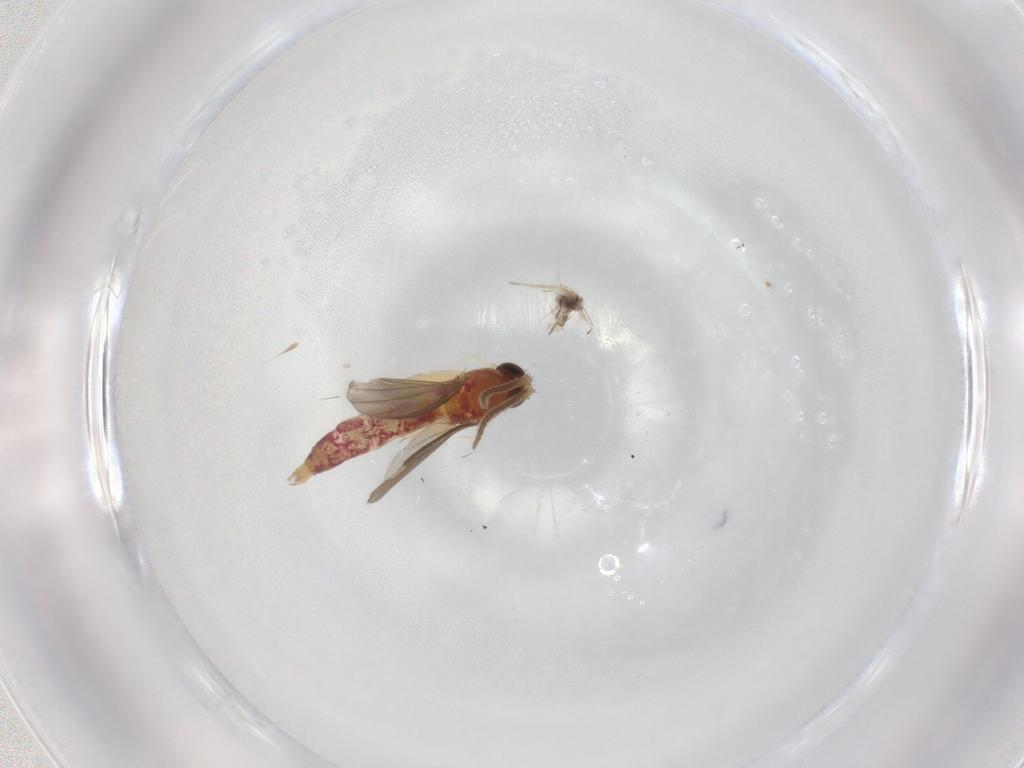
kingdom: Animalia
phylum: Arthropoda
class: Insecta
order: Diptera
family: Mycetophilidae
